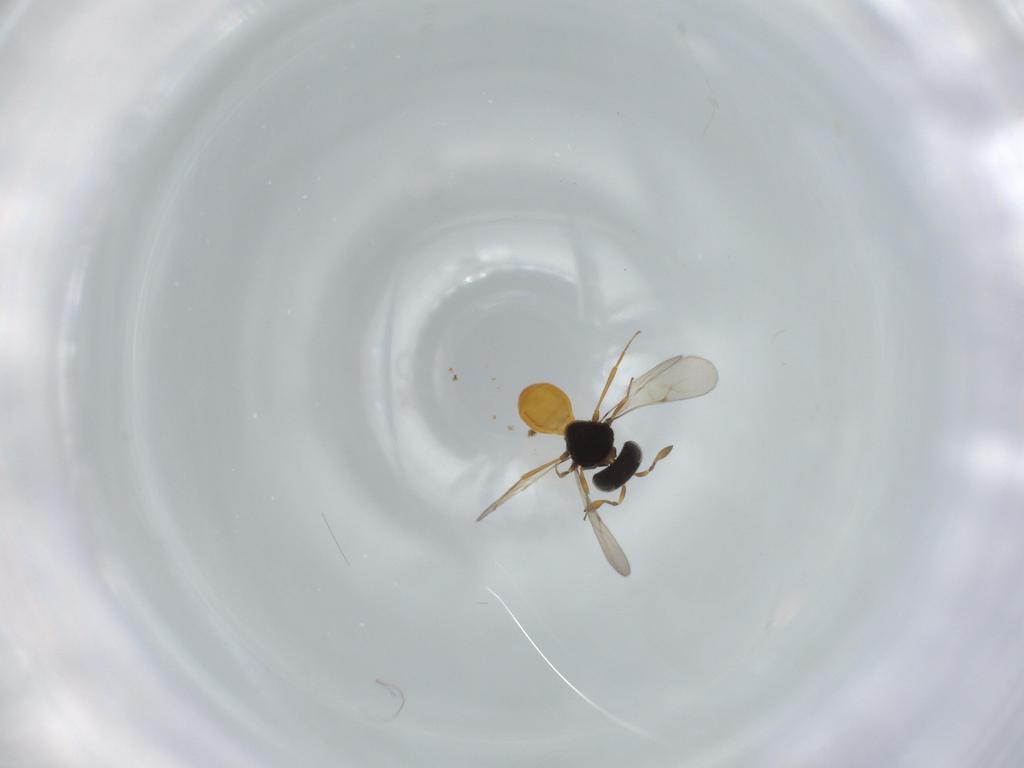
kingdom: Animalia
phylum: Arthropoda
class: Insecta
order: Hymenoptera
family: Scelionidae
